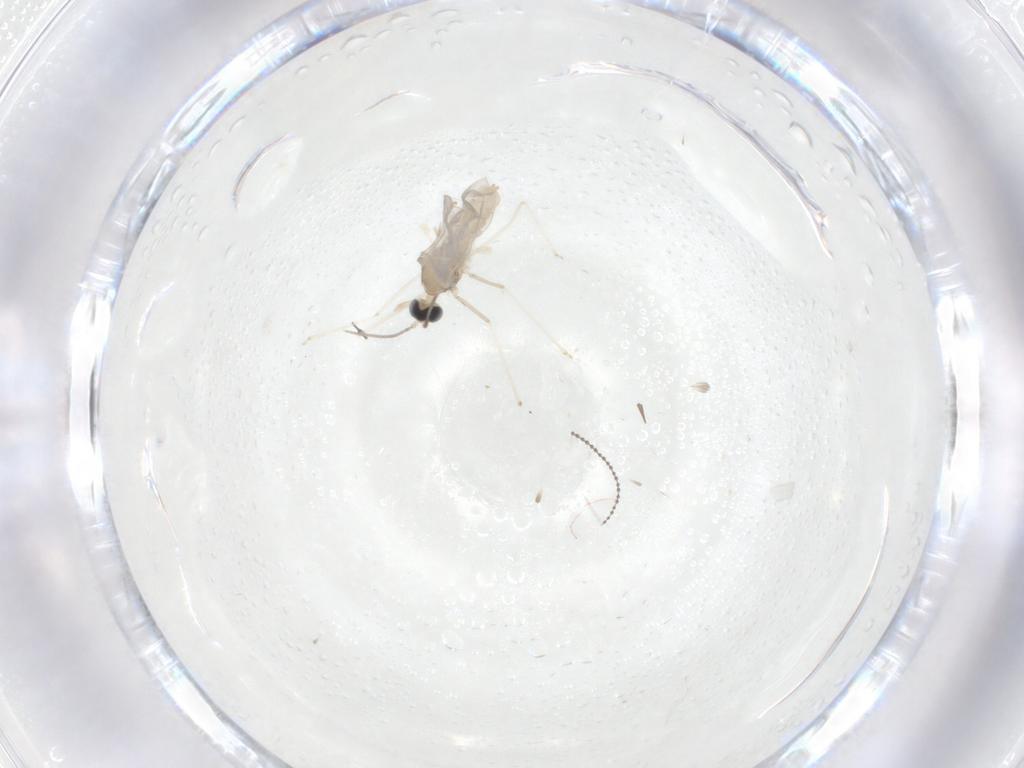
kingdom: Animalia
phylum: Arthropoda
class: Insecta
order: Diptera
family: Cecidomyiidae
